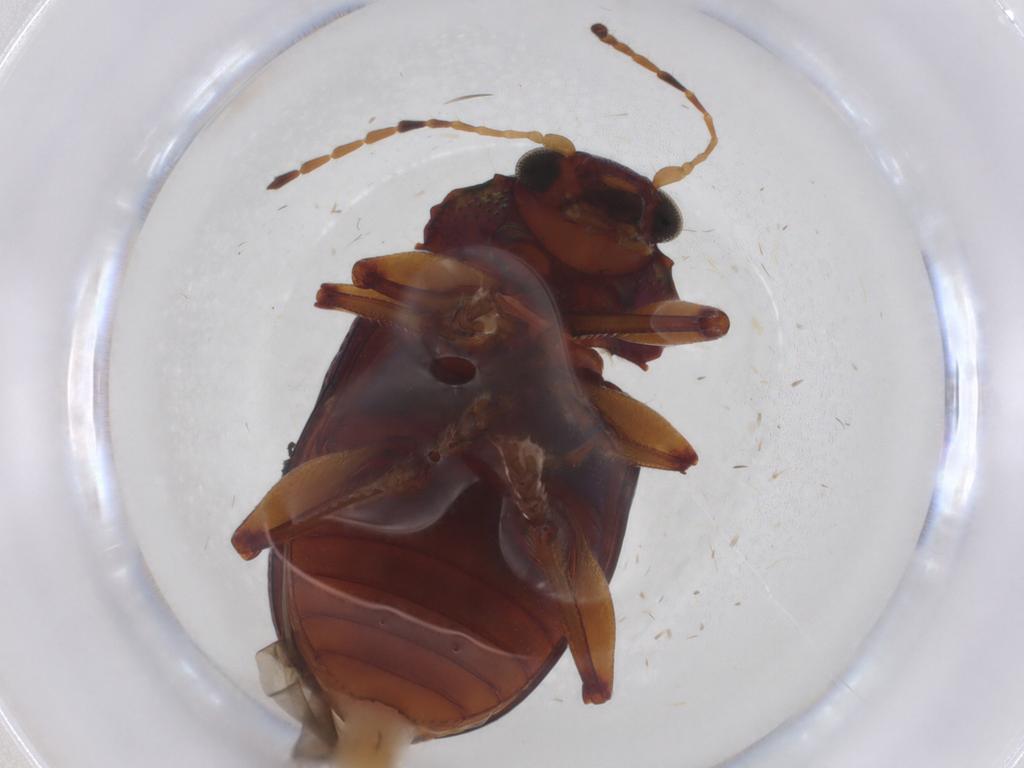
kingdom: Animalia
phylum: Arthropoda
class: Insecta
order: Coleoptera
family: Chrysomelidae
